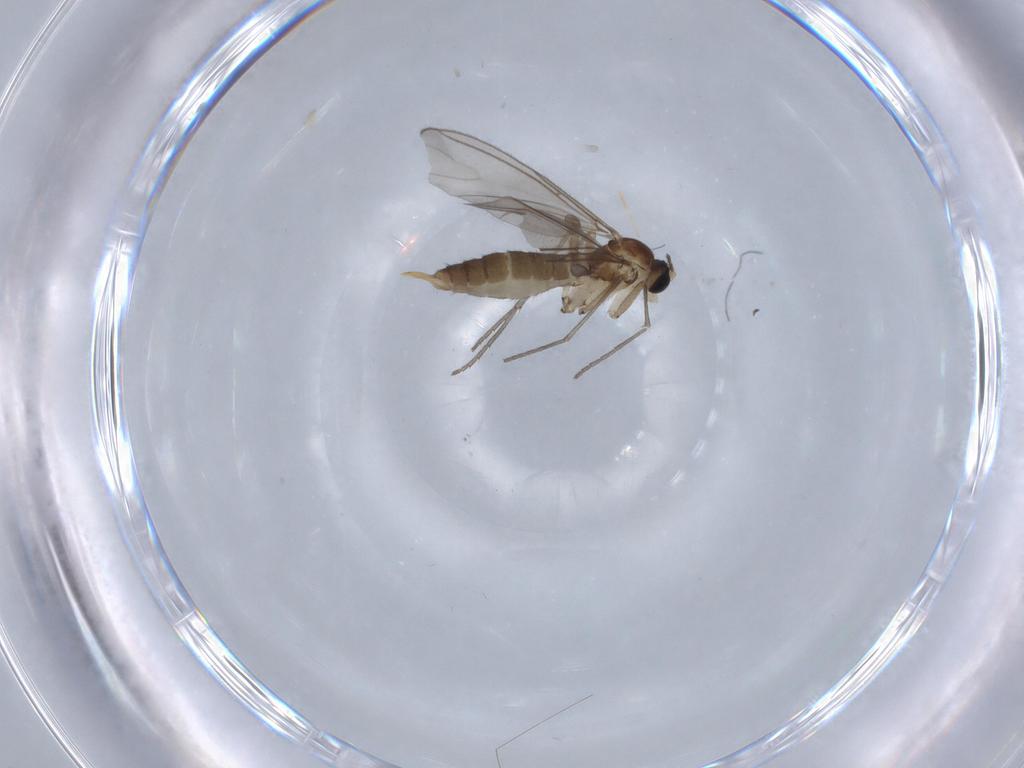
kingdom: Animalia
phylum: Arthropoda
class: Insecta
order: Diptera
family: Sciaridae
